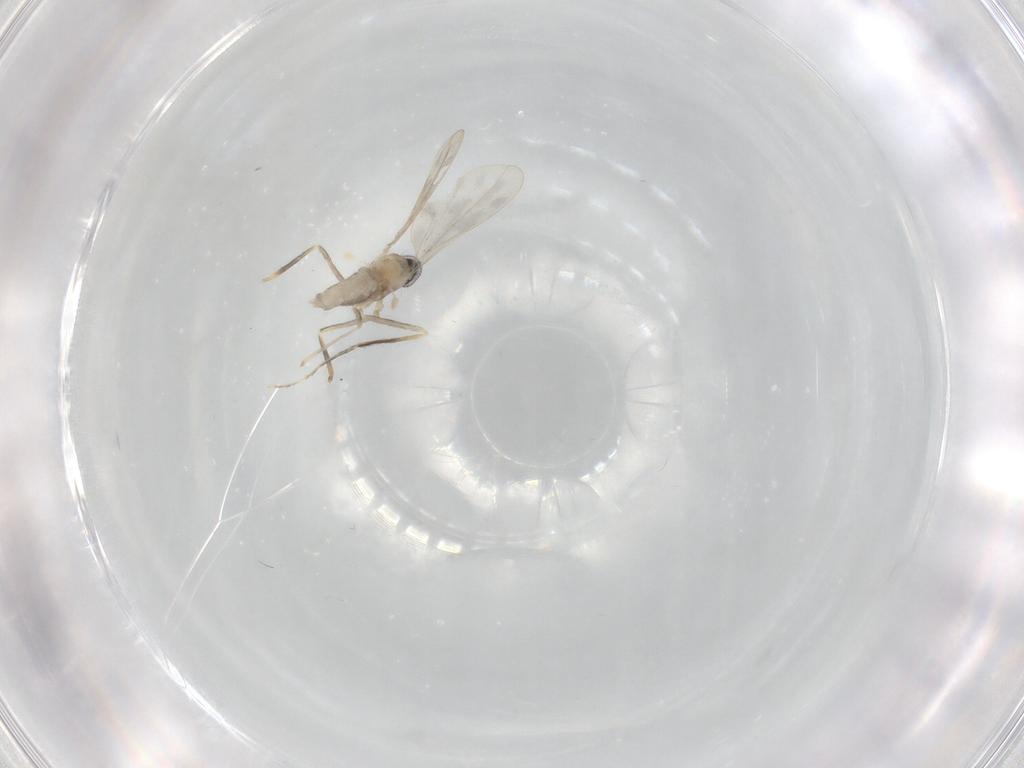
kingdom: Animalia
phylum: Arthropoda
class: Insecta
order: Diptera
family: Cecidomyiidae
